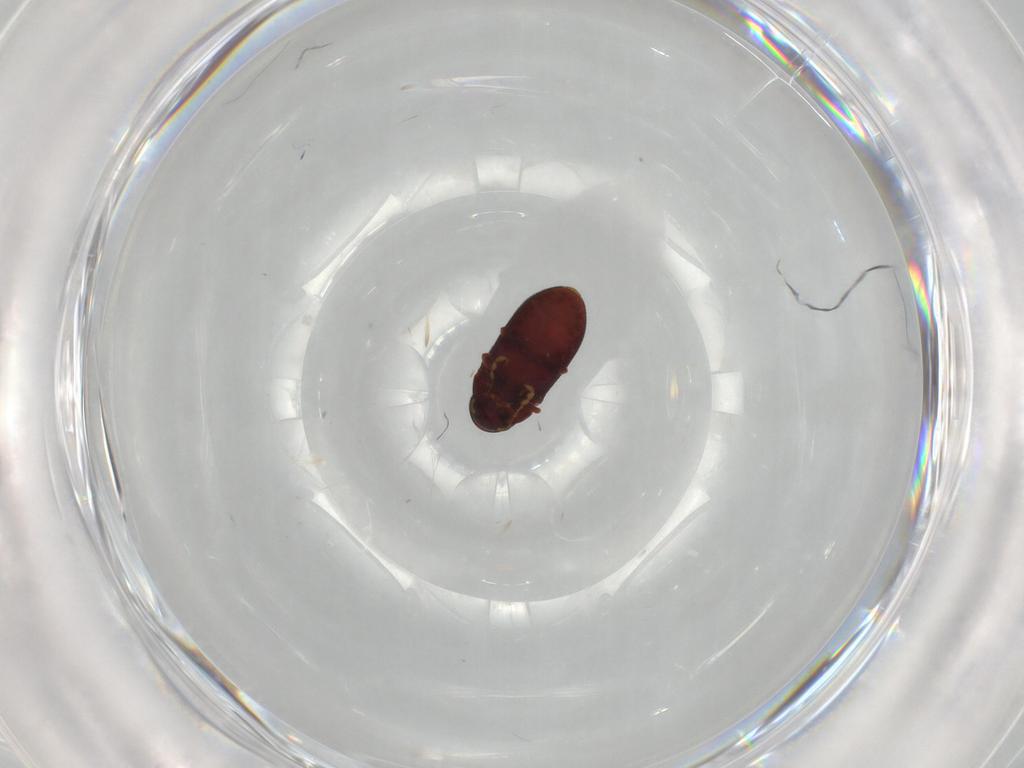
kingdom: Animalia
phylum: Arthropoda
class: Insecta
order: Coleoptera
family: Ptinidae
